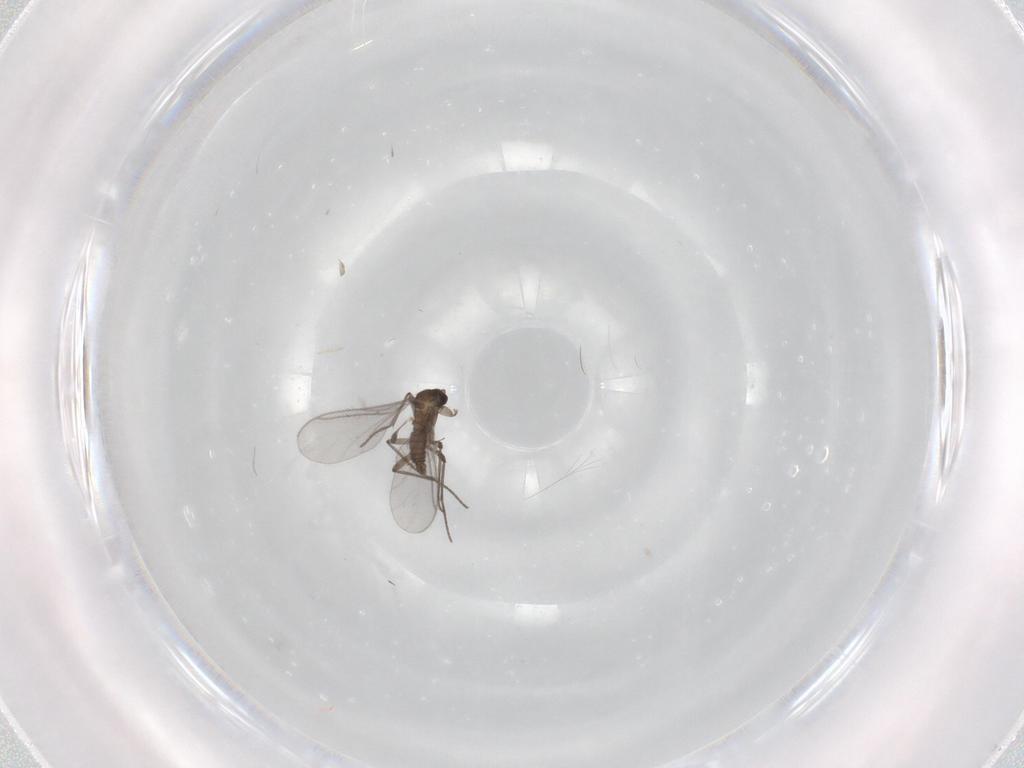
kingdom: Animalia
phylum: Arthropoda
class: Insecta
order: Diptera
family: Sciaridae
